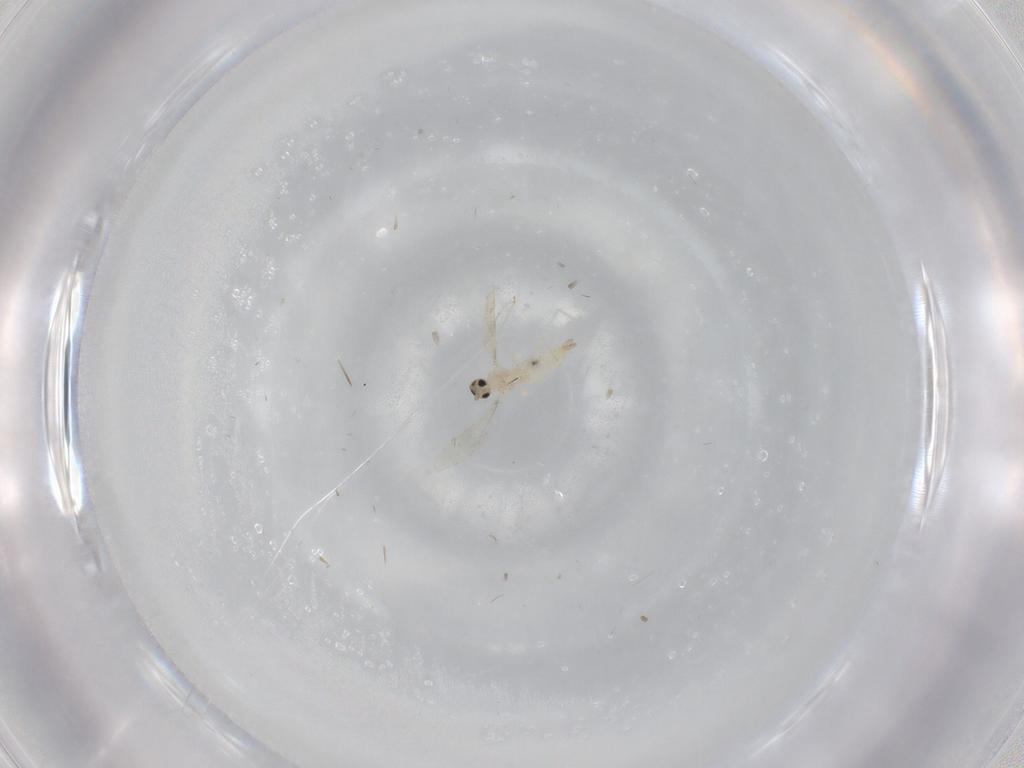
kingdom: Animalia
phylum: Arthropoda
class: Insecta
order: Diptera
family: Cecidomyiidae
